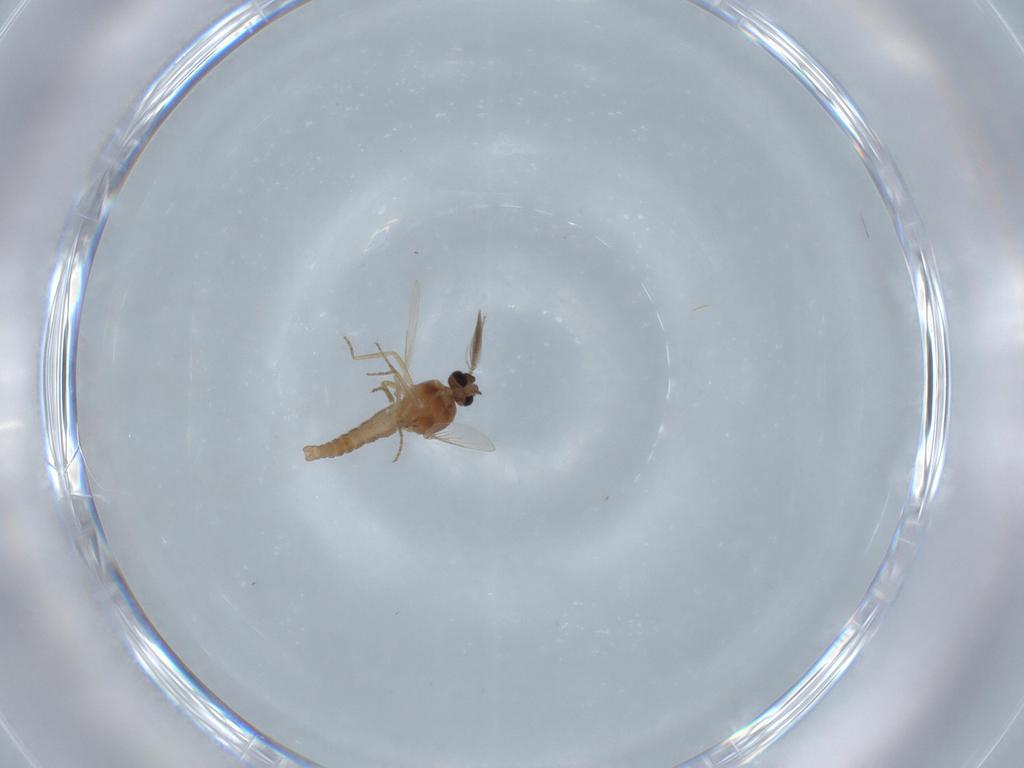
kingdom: Animalia
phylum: Arthropoda
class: Insecta
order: Diptera
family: Ceratopogonidae
